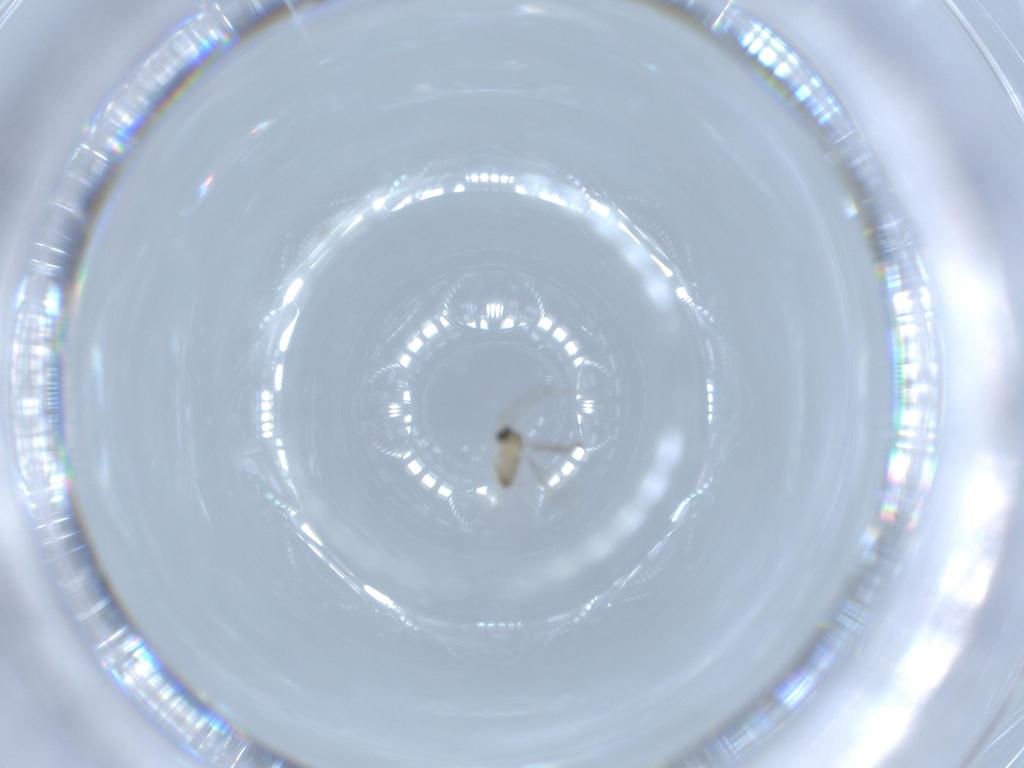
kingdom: Animalia
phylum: Arthropoda
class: Insecta
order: Diptera
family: Cecidomyiidae
